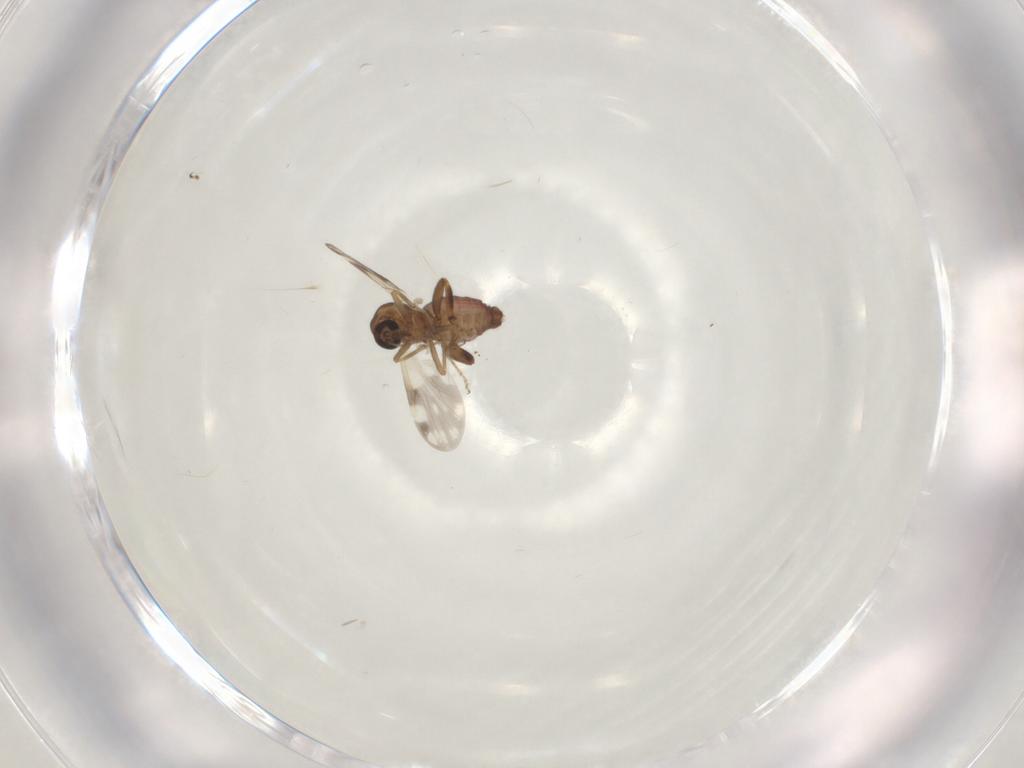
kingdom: Animalia
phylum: Arthropoda
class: Insecta
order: Diptera
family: Ceratopogonidae
